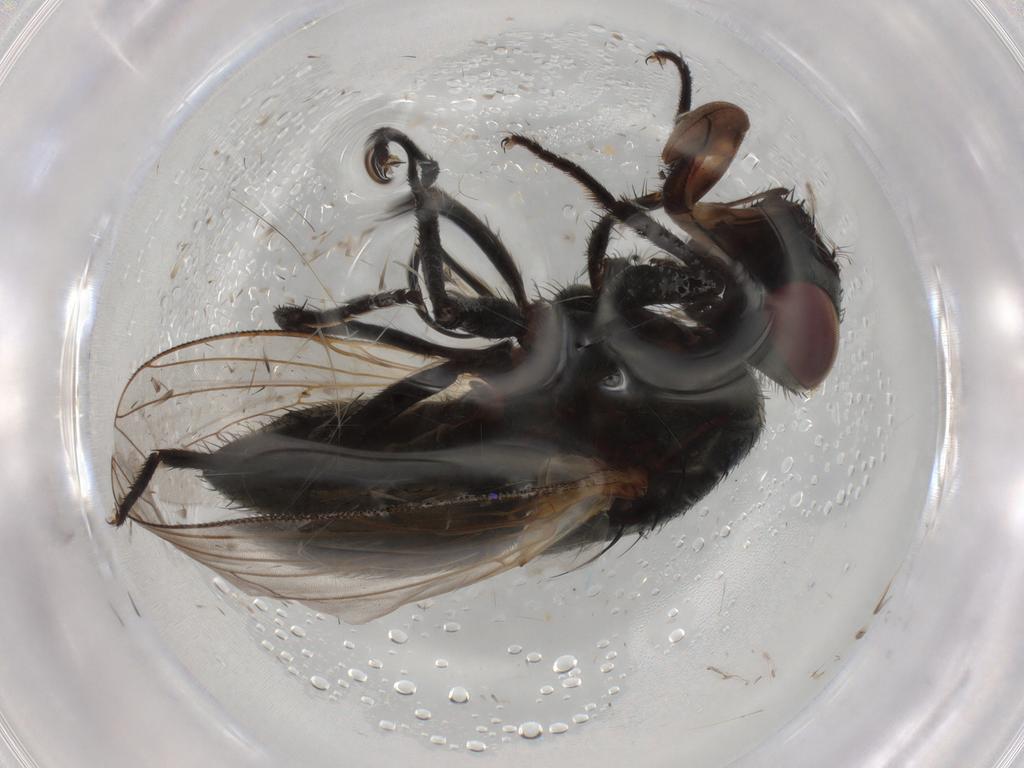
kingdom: Animalia
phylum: Arthropoda
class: Insecta
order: Diptera
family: Muscidae
